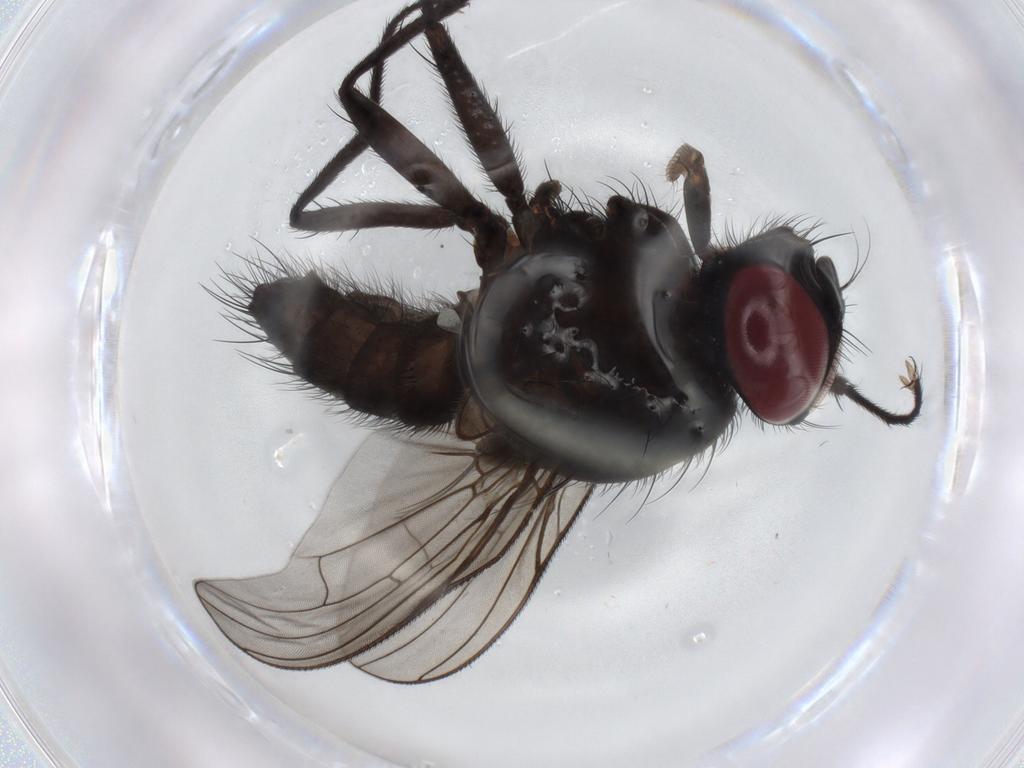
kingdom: Animalia
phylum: Arthropoda
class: Insecta
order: Diptera
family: Muscidae
